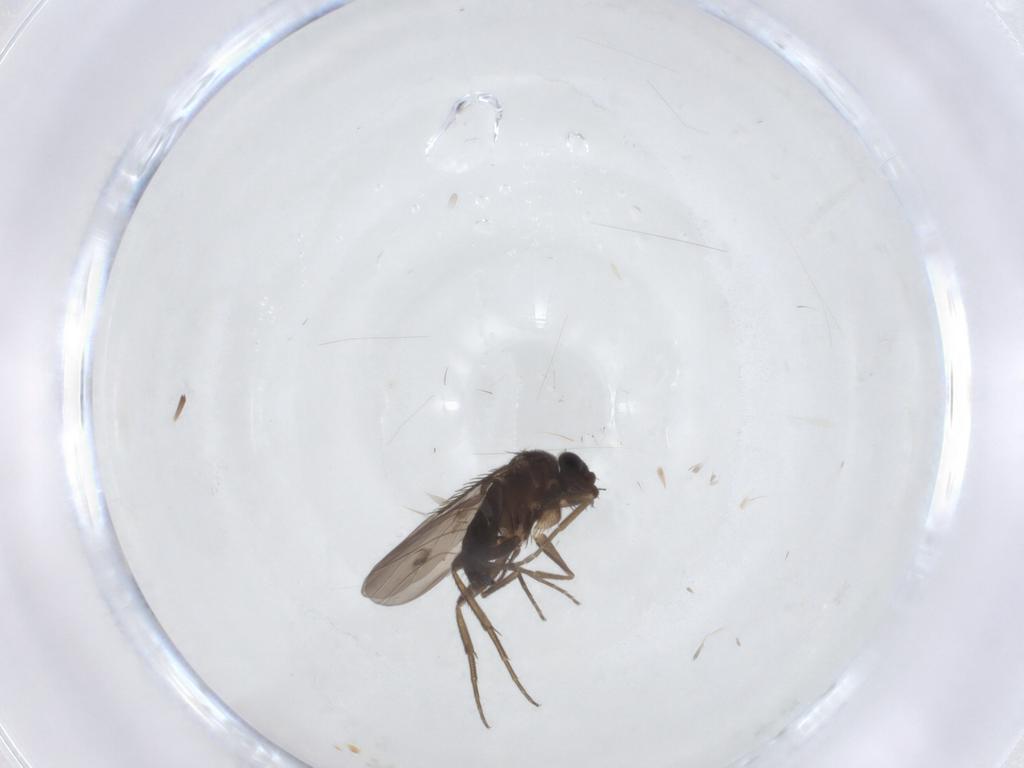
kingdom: Animalia
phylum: Arthropoda
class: Insecta
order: Diptera
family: Phoridae
